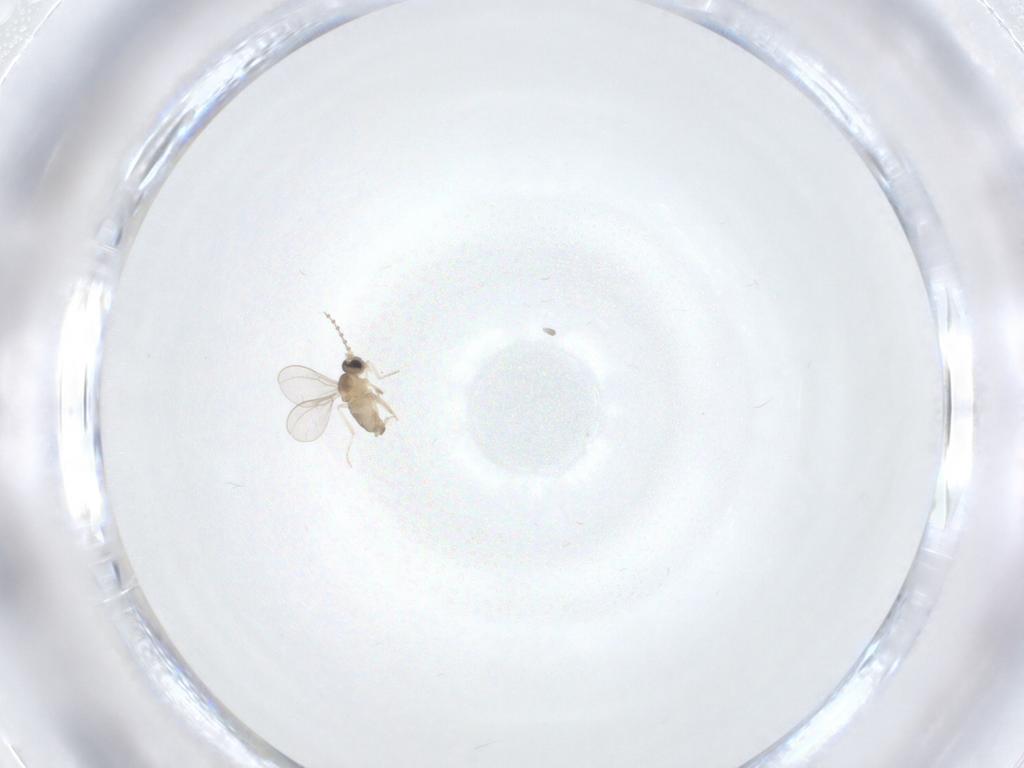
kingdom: Animalia
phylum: Arthropoda
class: Insecta
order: Diptera
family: Cecidomyiidae
